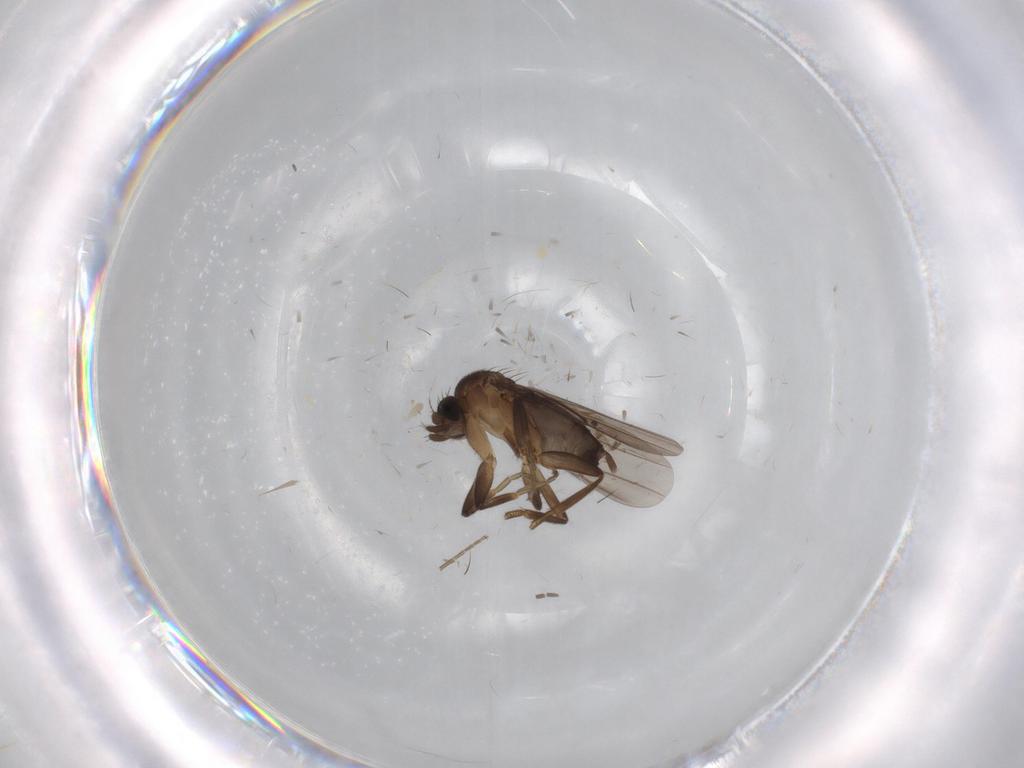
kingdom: Animalia
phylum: Arthropoda
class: Insecta
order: Diptera
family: Sciaridae
